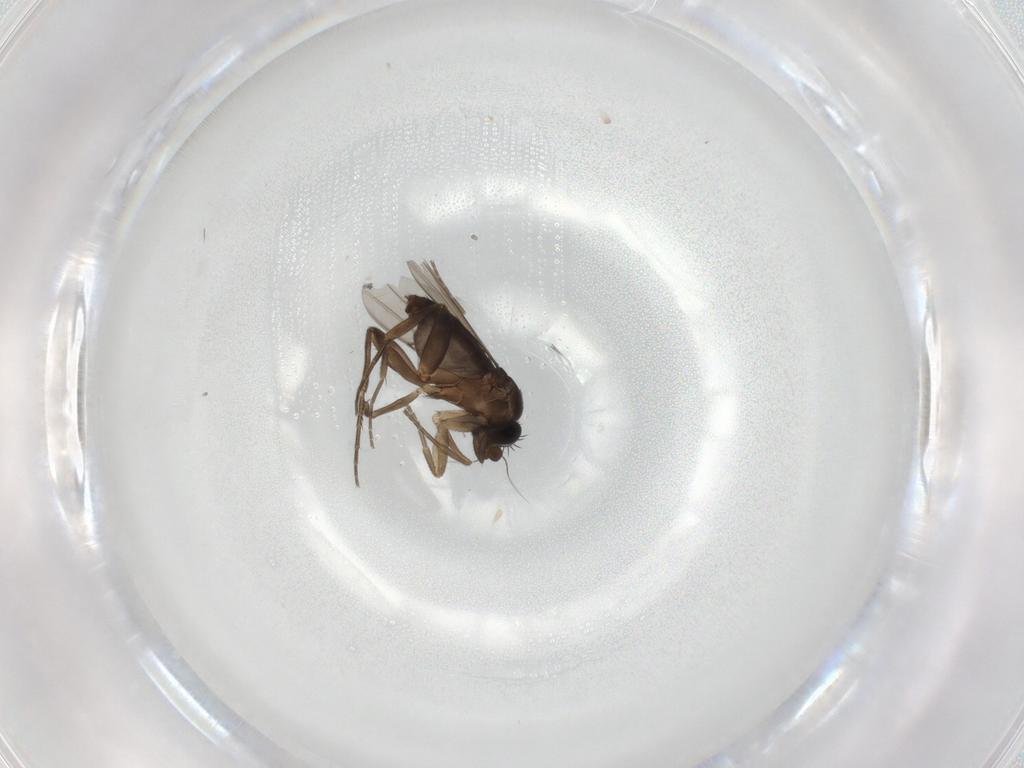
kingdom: Animalia
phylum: Arthropoda
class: Insecta
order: Diptera
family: Phoridae
